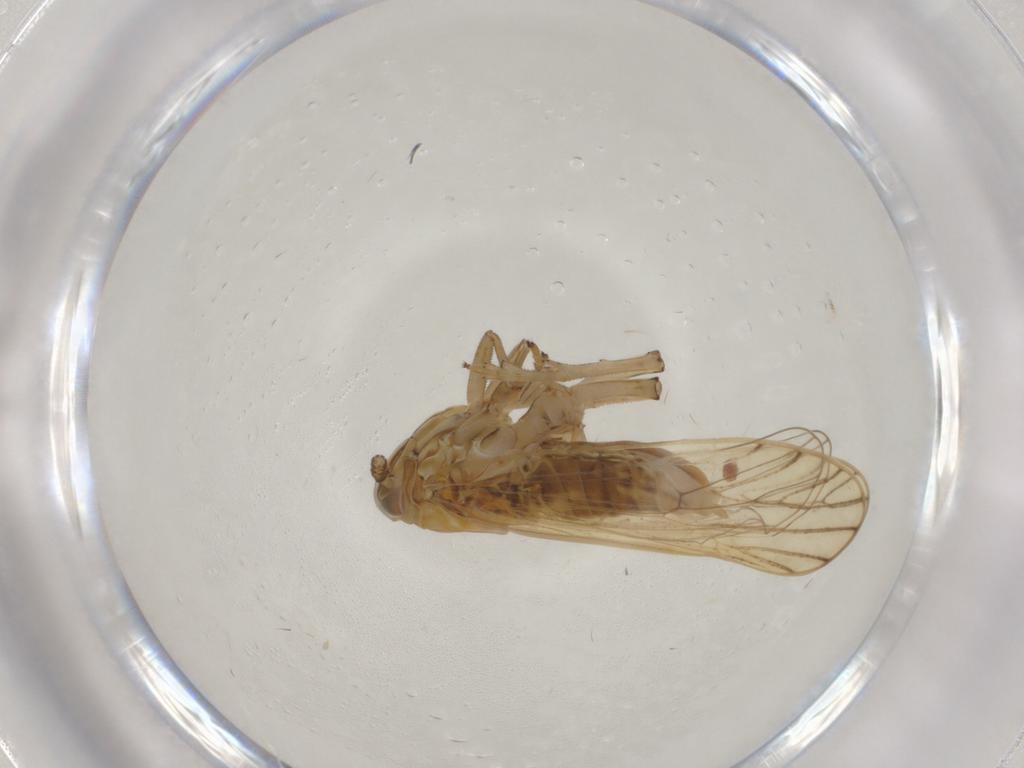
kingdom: Animalia
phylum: Arthropoda
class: Insecta
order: Hemiptera
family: Delphacidae
